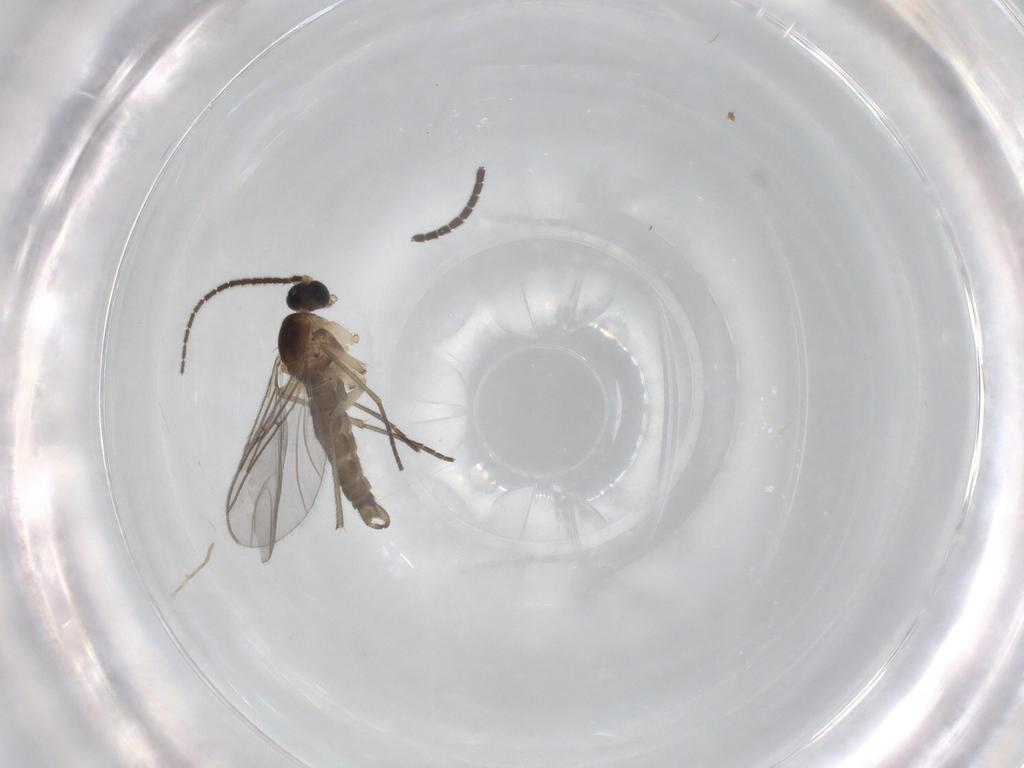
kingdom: Animalia
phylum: Arthropoda
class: Insecta
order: Diptera
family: Sciaridae
